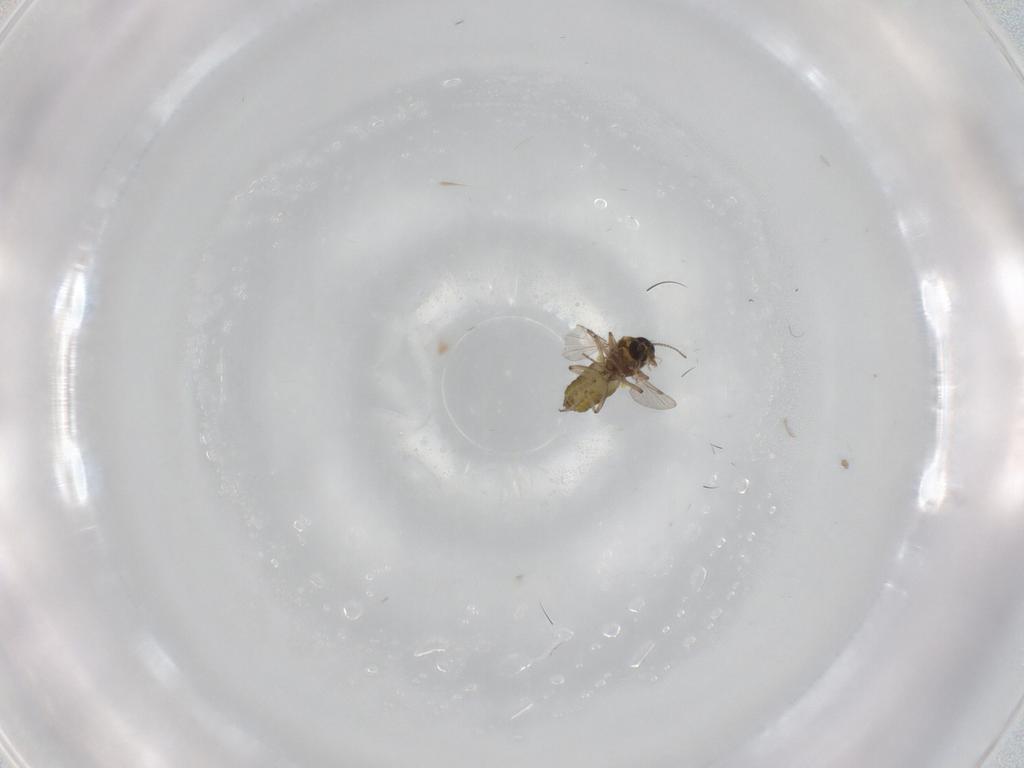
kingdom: Animalia
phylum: Arthropoda
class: Insecta
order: Diptera
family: Ceratopogonidae
